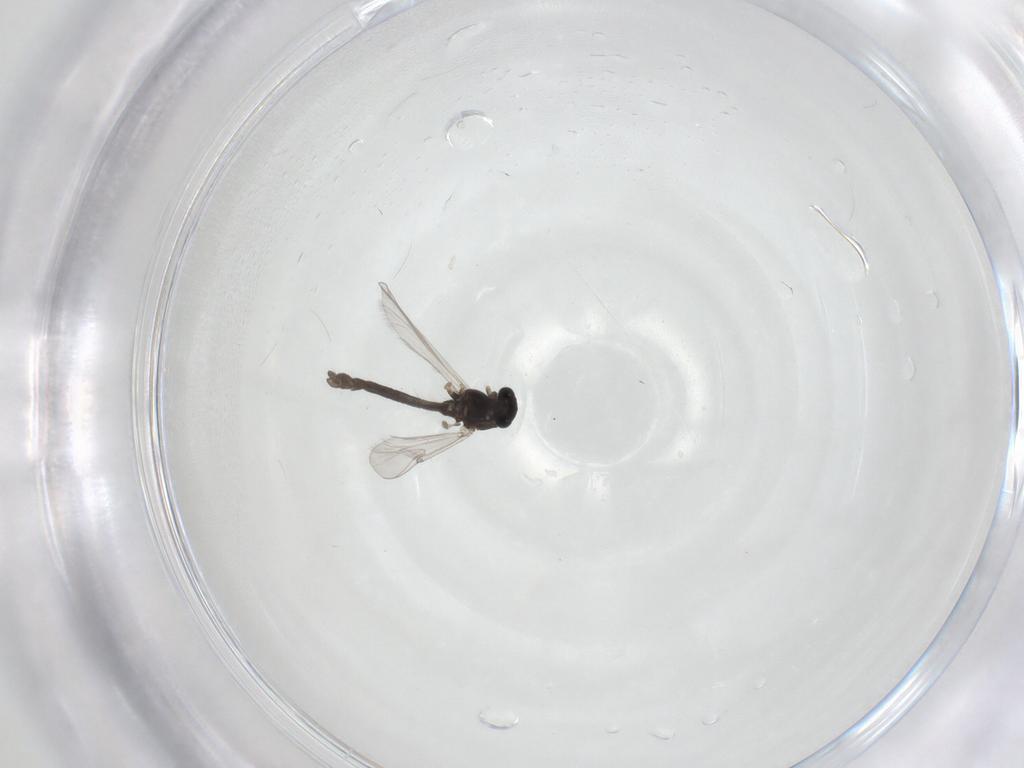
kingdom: Animalia
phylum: Arthropoda
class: Insecta
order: Diptera
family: Chironomidae
